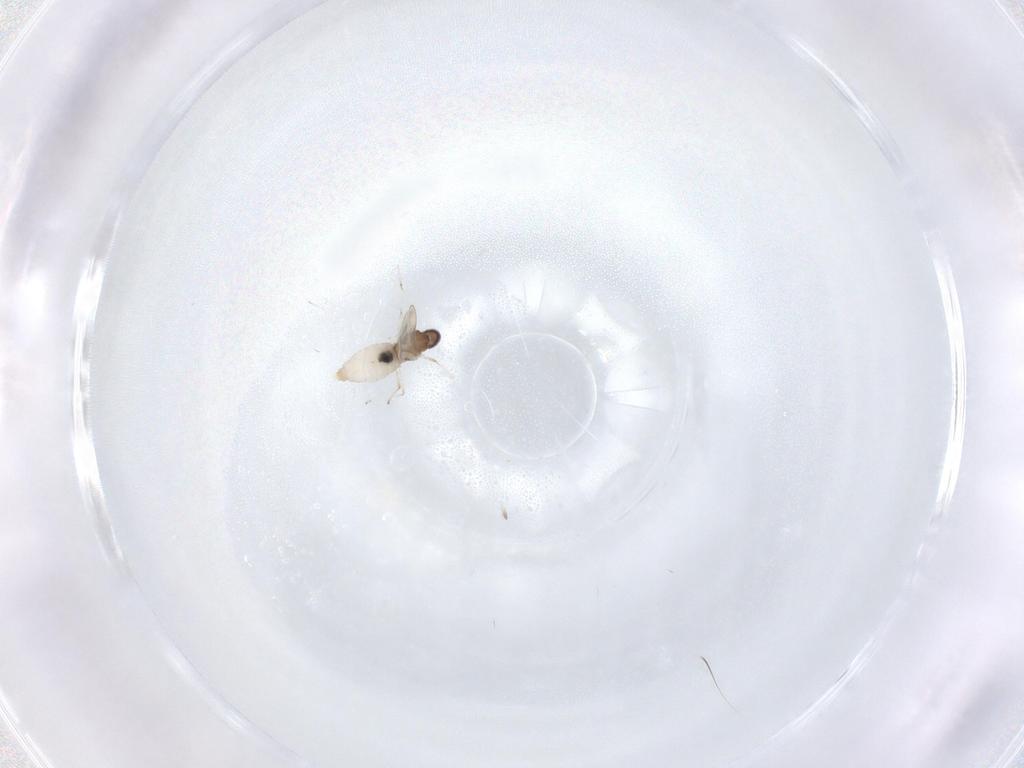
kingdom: Animalia
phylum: Arthropoda
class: Insecta
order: Diptera
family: Cecidomyiidae
